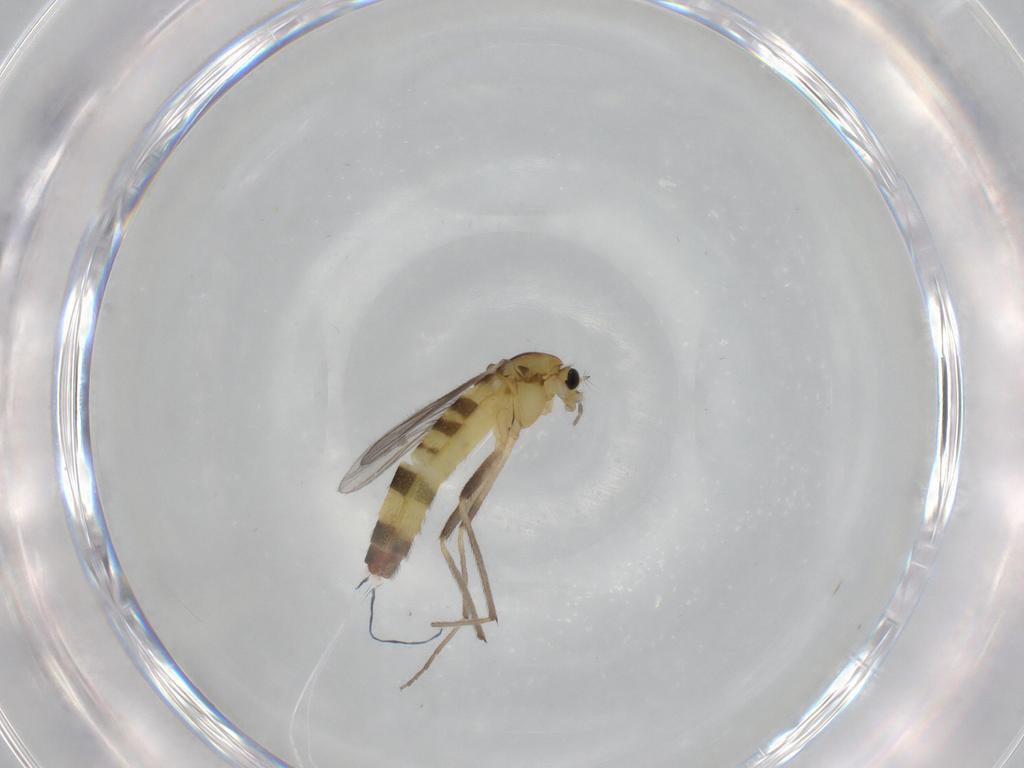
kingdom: Animalia
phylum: Arthropoda
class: Insecta
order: Diptera
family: Chironomidae
